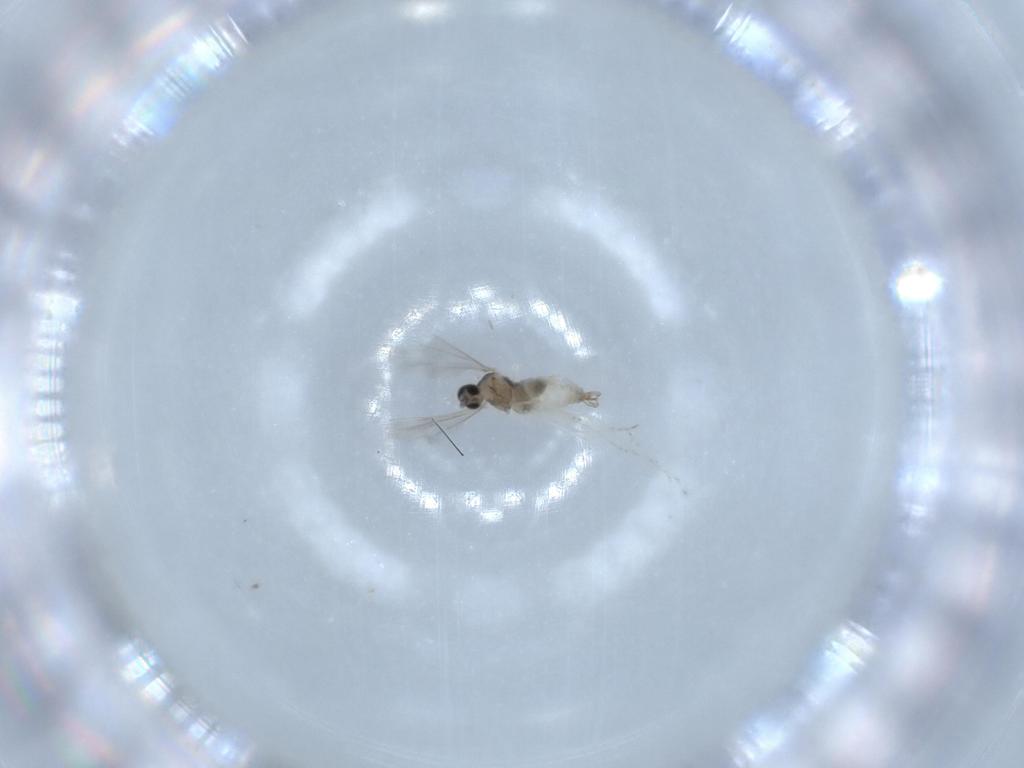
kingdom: Animalia
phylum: Arthropoda
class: Insecta
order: Diptera
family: Cecidomyiidae
